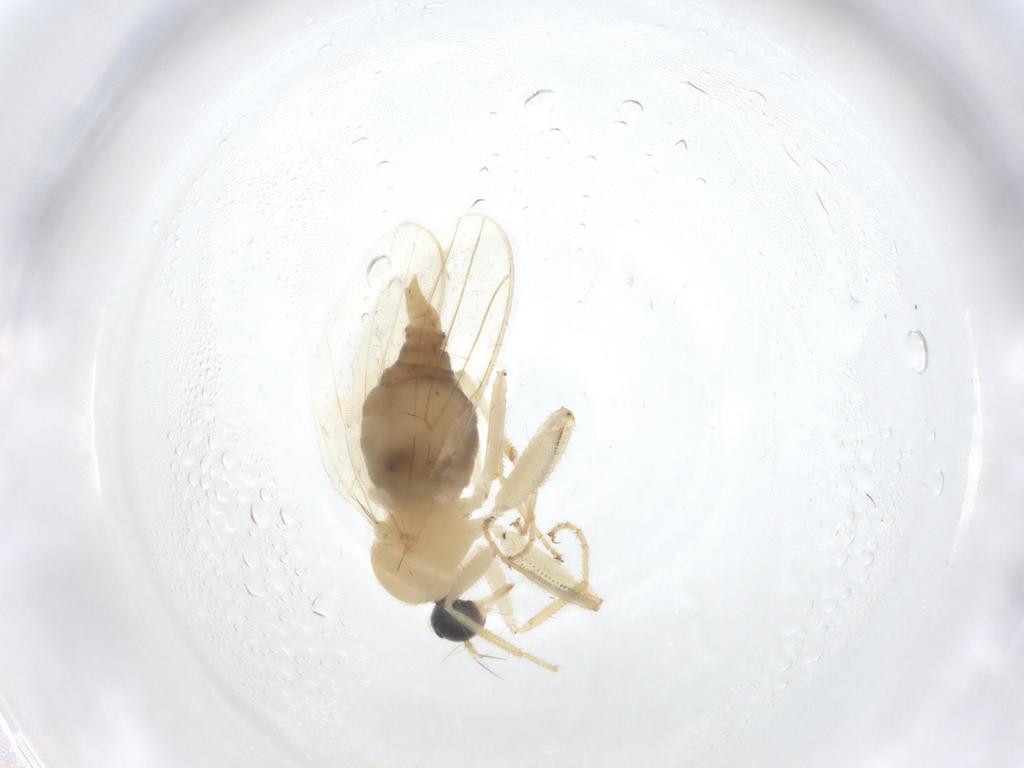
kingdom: Animalia
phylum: Arthropoda
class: Insecta
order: Diptera
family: Hybotidae
